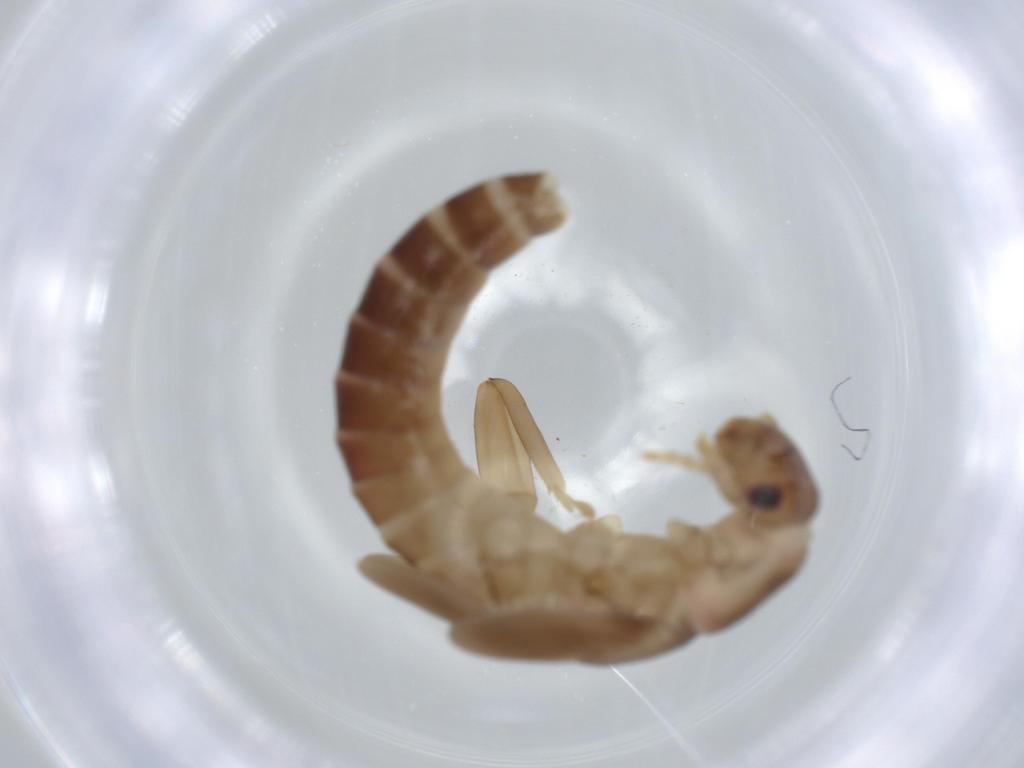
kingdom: Animalia
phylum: Arthropoda
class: Insecta
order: Plecoptera
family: Leuctridae
